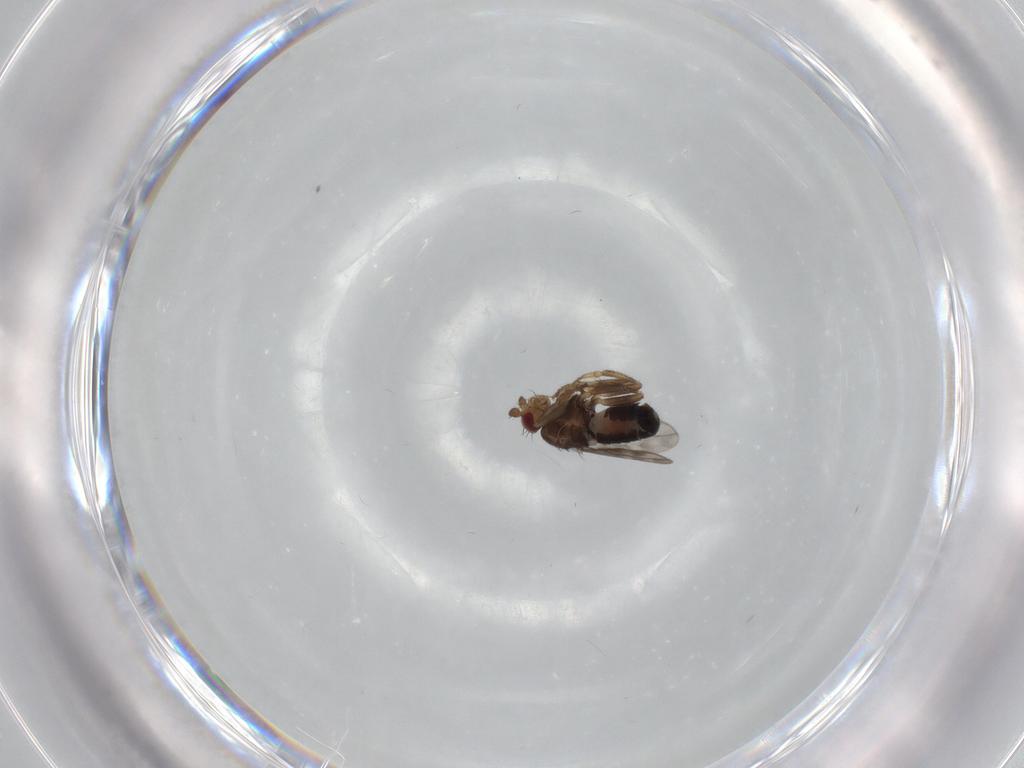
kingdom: Animalia
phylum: Arthropoda
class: Insecta
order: Diptera
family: Sphaeroceridae
